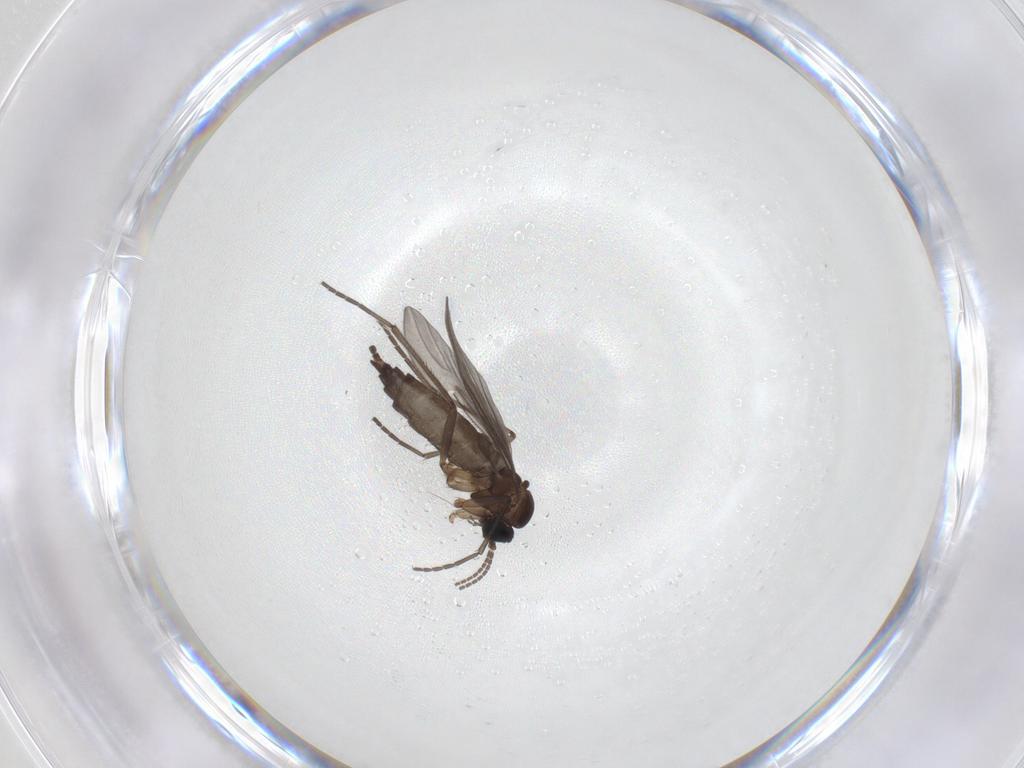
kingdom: Animalia
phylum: Arthropoda
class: Insecta
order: Diptera
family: Sciaridae
